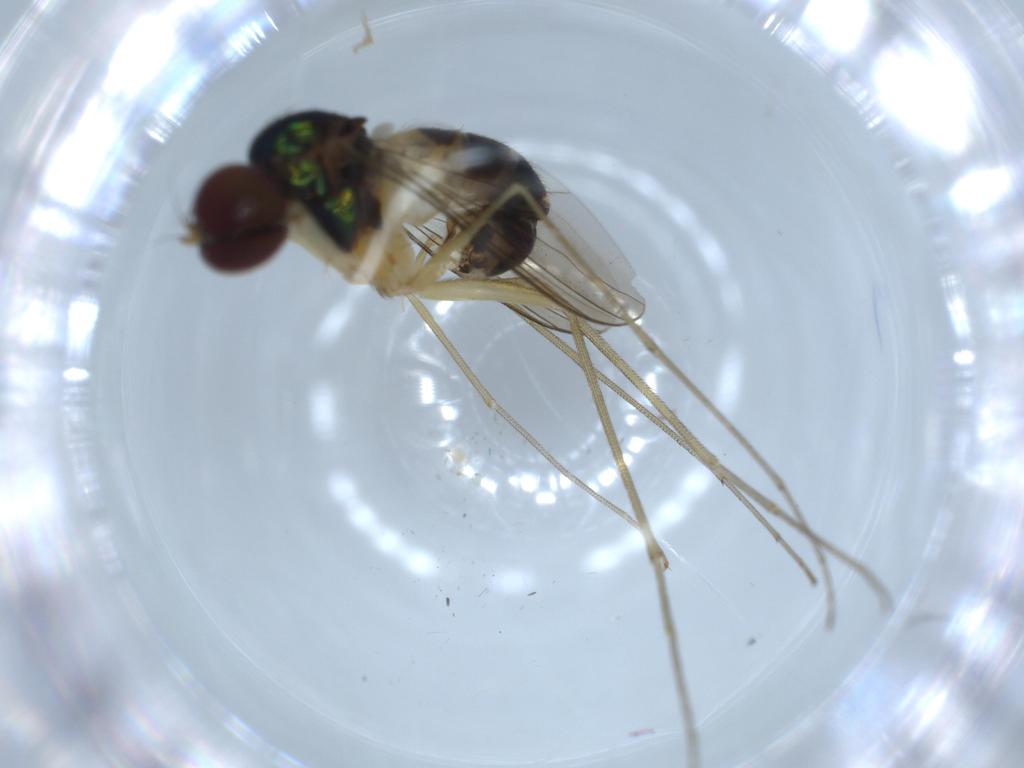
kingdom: Animalia
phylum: Arthropoda
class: Insecta
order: Diptera
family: Dolichopodidae
